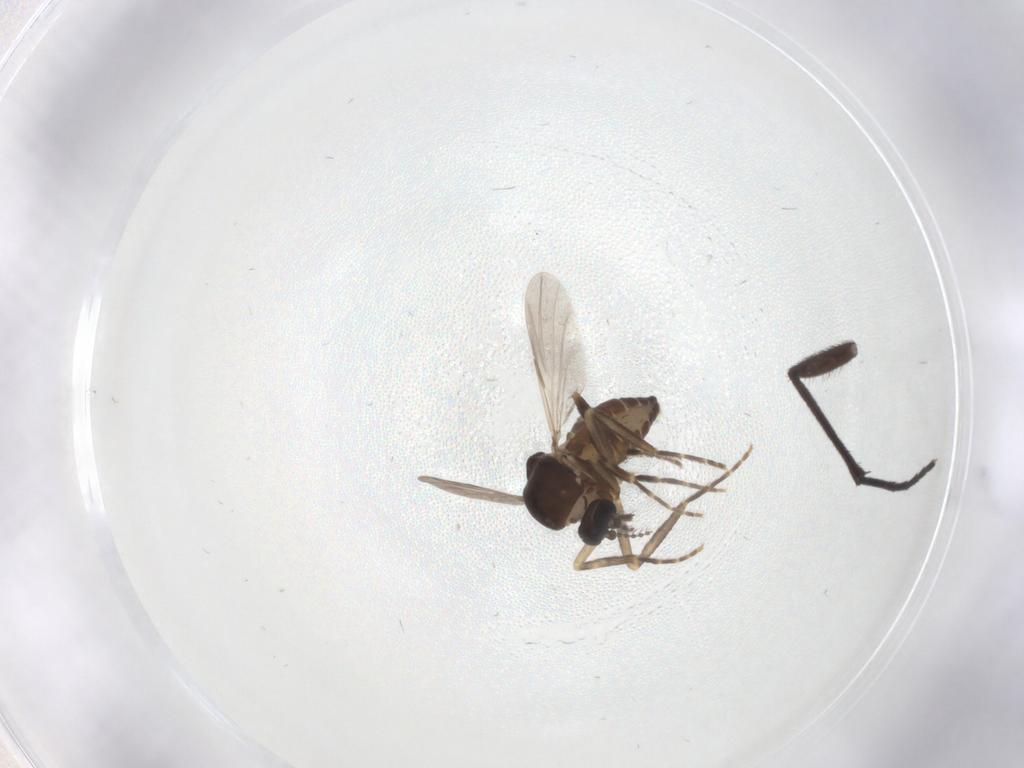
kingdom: Animalia
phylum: Arthropoda
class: Insecta
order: Diptera
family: Ceratopogonidae
